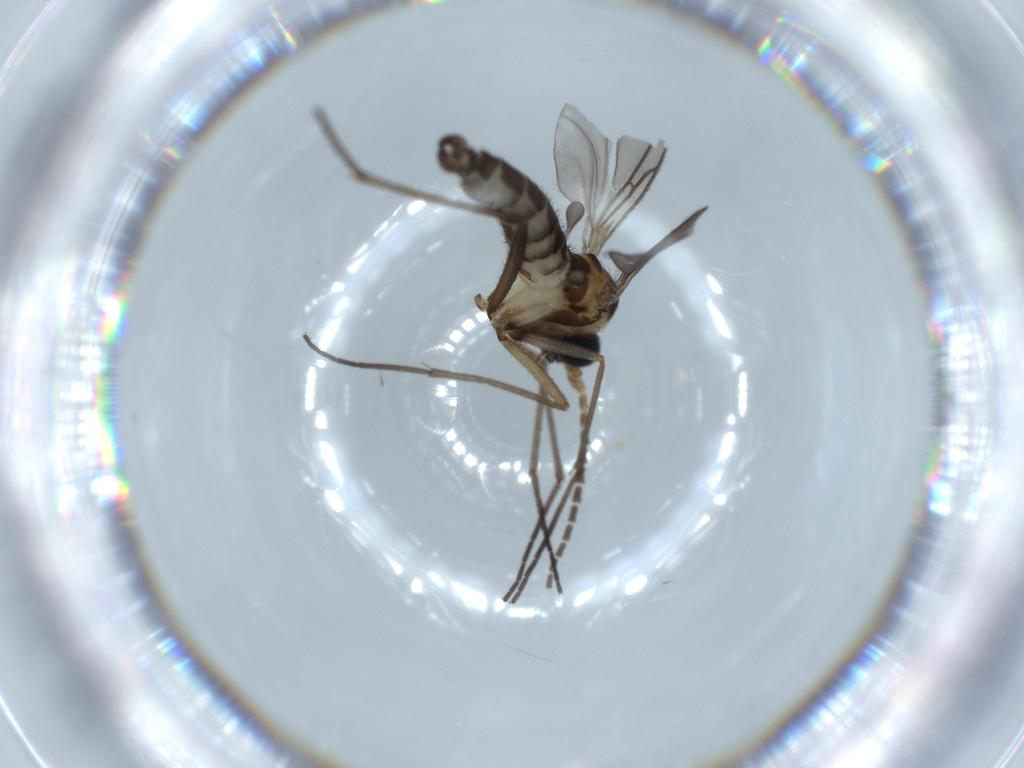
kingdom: Animalia
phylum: Arthropoda
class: Insecta
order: Diptera
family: Sciaridae
